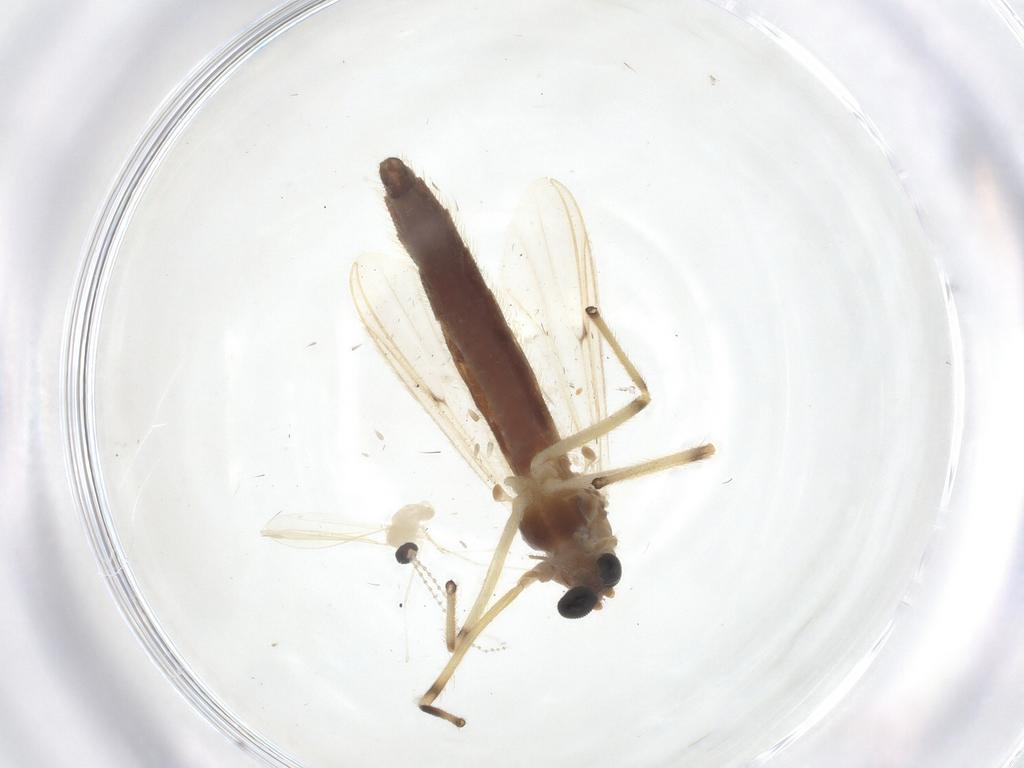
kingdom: Animalia
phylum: Arthropoda
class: Insecta
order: Diptera
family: Chironomidae
